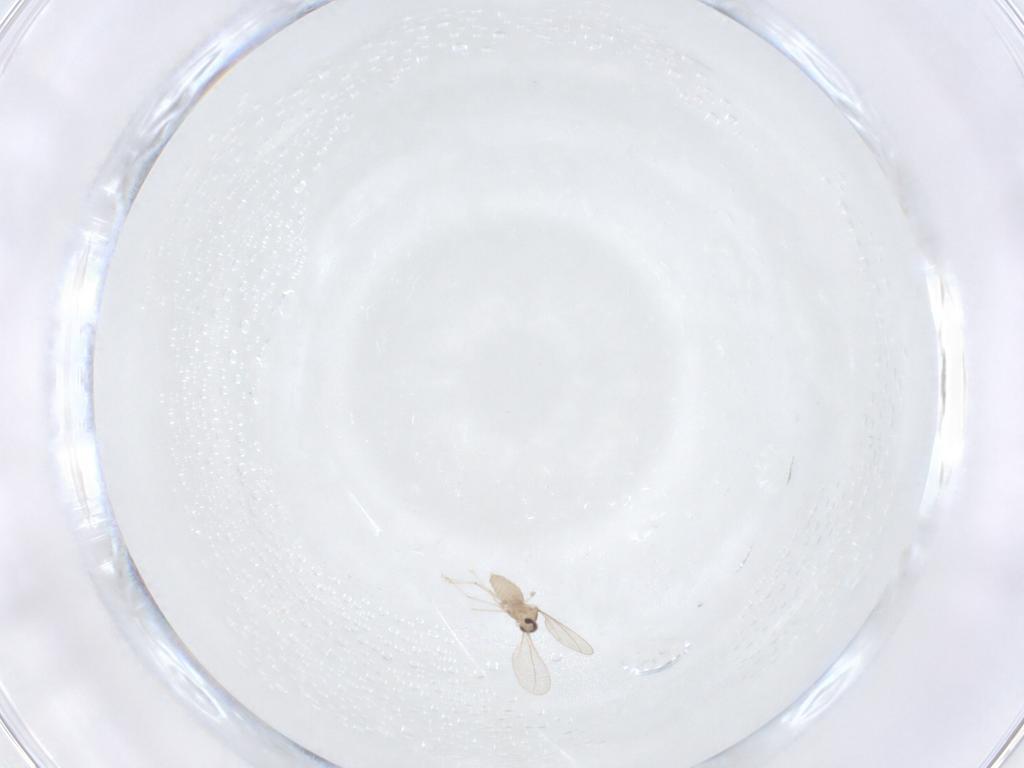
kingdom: Animalia
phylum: Arthropoda
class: Insecta
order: Diptera
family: Cecidomyiidae
